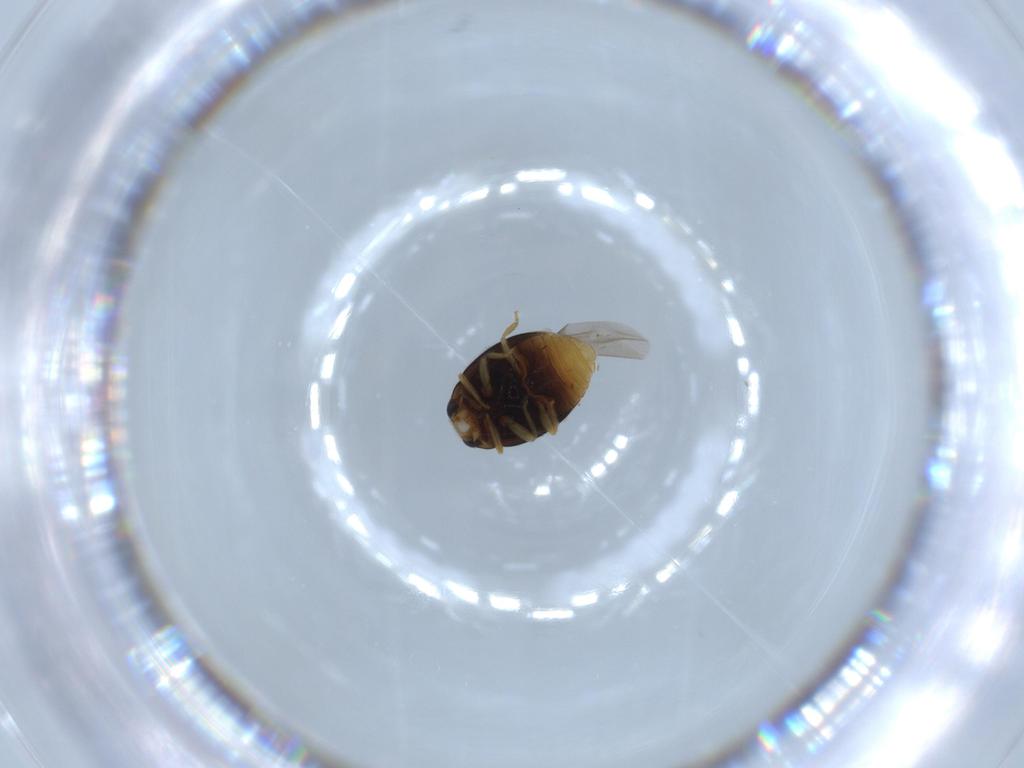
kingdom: Animalia
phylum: Arthropoda
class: Insecta
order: Coleoptera
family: Coccinellidae
